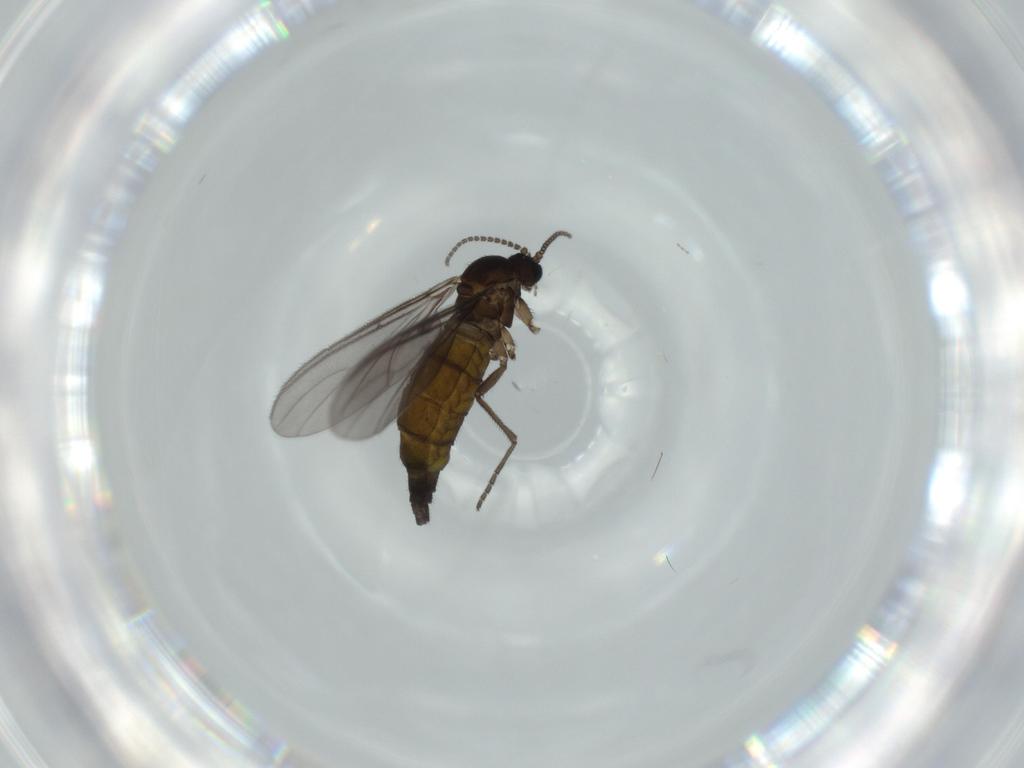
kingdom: Animalia
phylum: Arthropoda
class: Insecta
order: Diptera
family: Sciaridae
